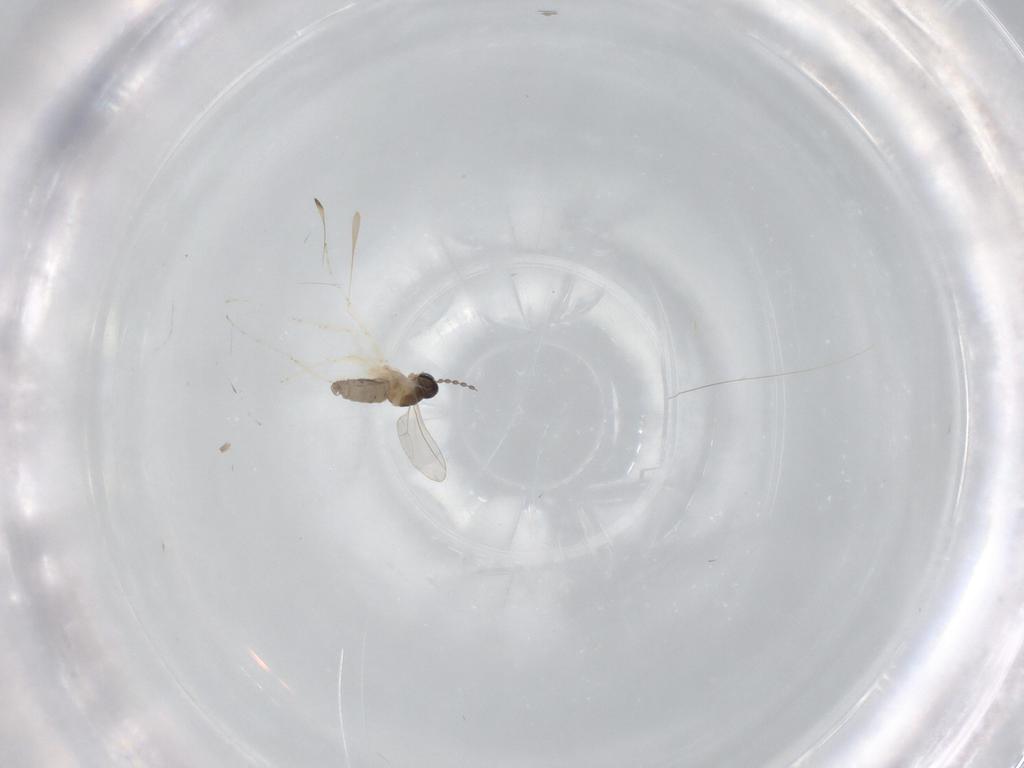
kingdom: Animalia
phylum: Arthropoda
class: Insecta
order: Diptera
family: Cecidomyiidae
